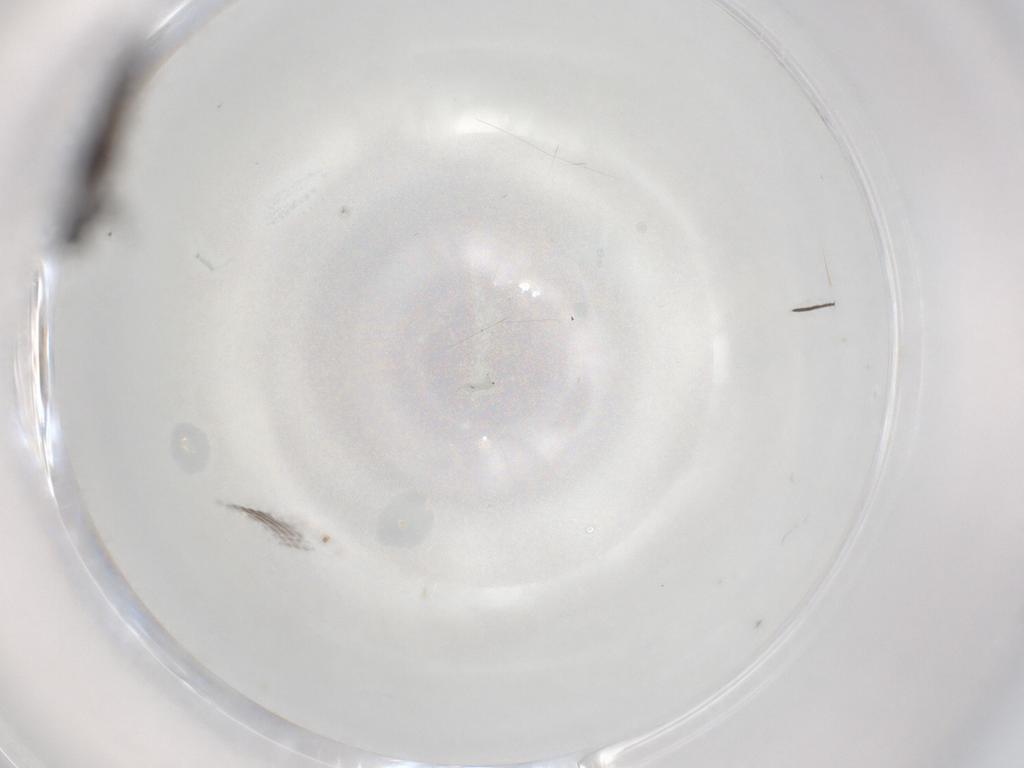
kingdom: Animalia
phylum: Arthropoda
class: Insecta
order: Diptera
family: Chironomidae
